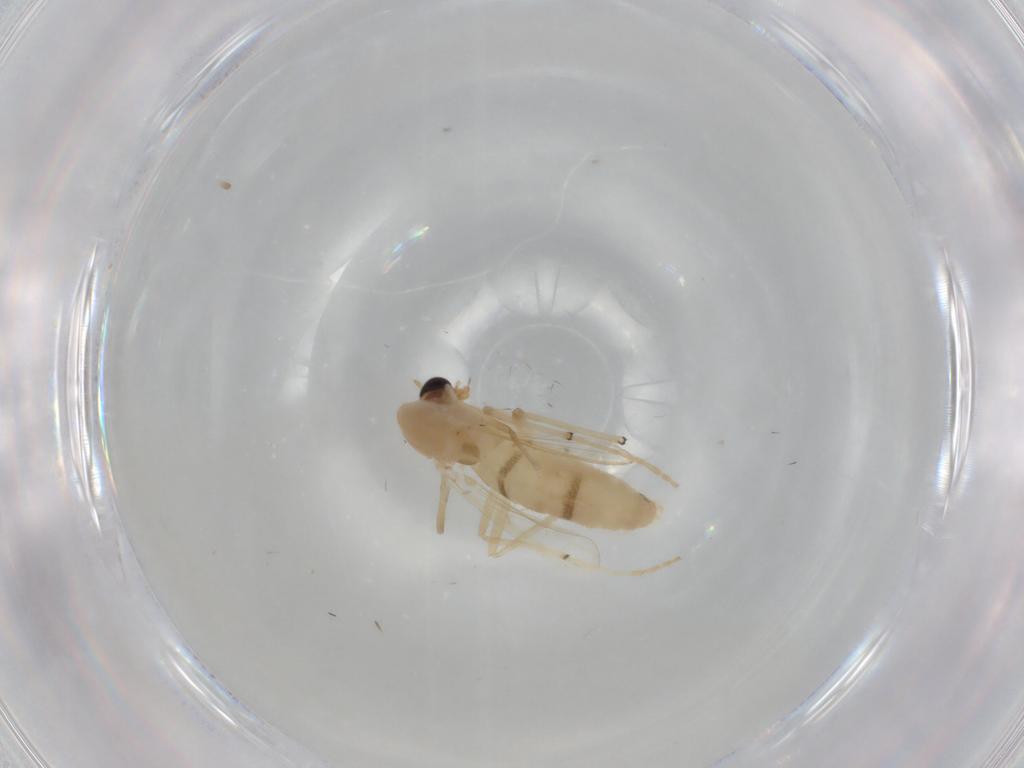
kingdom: Animalia
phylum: Arthropoda
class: Insecta
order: Diptera
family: Chironomidae
